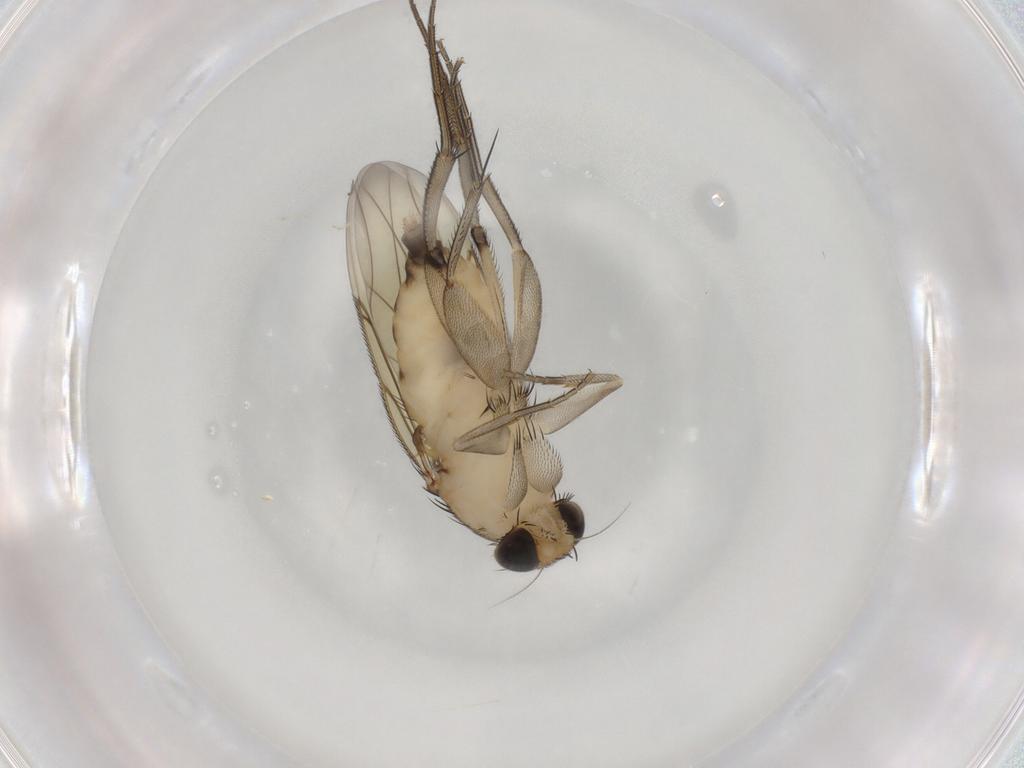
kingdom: Animalia
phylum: Arthropoda
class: Insecta
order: Diptera
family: Phoridae
